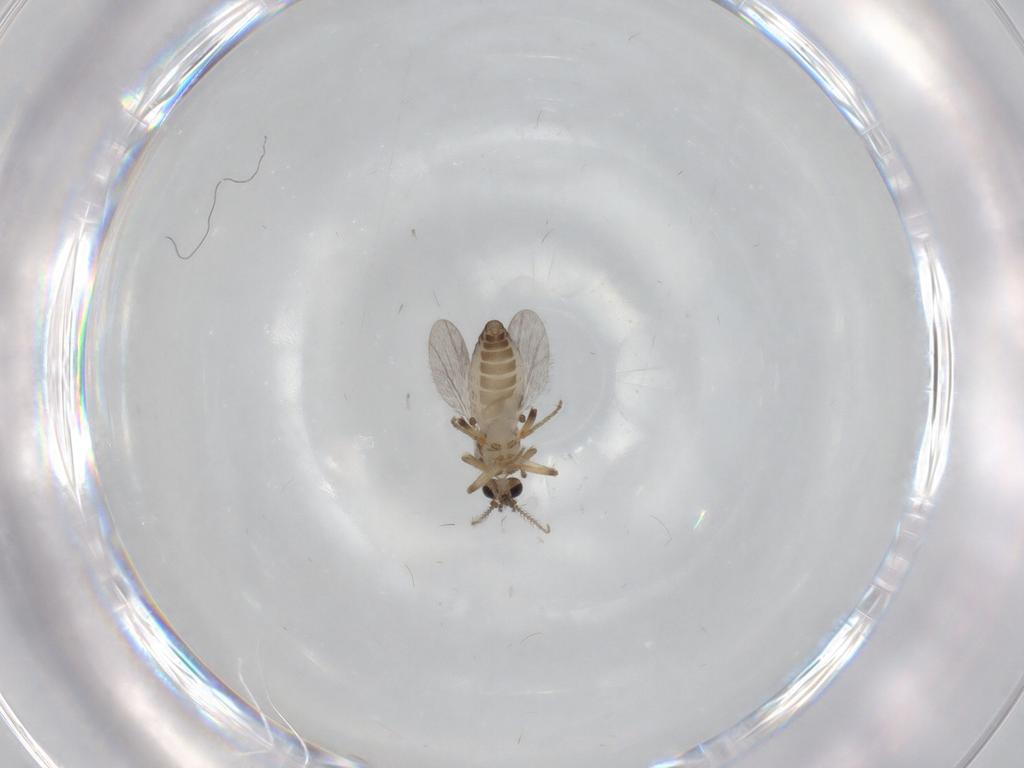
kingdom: Animalia
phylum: Arthropoda
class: Insecta
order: Diptera
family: Ceratopogonidae
